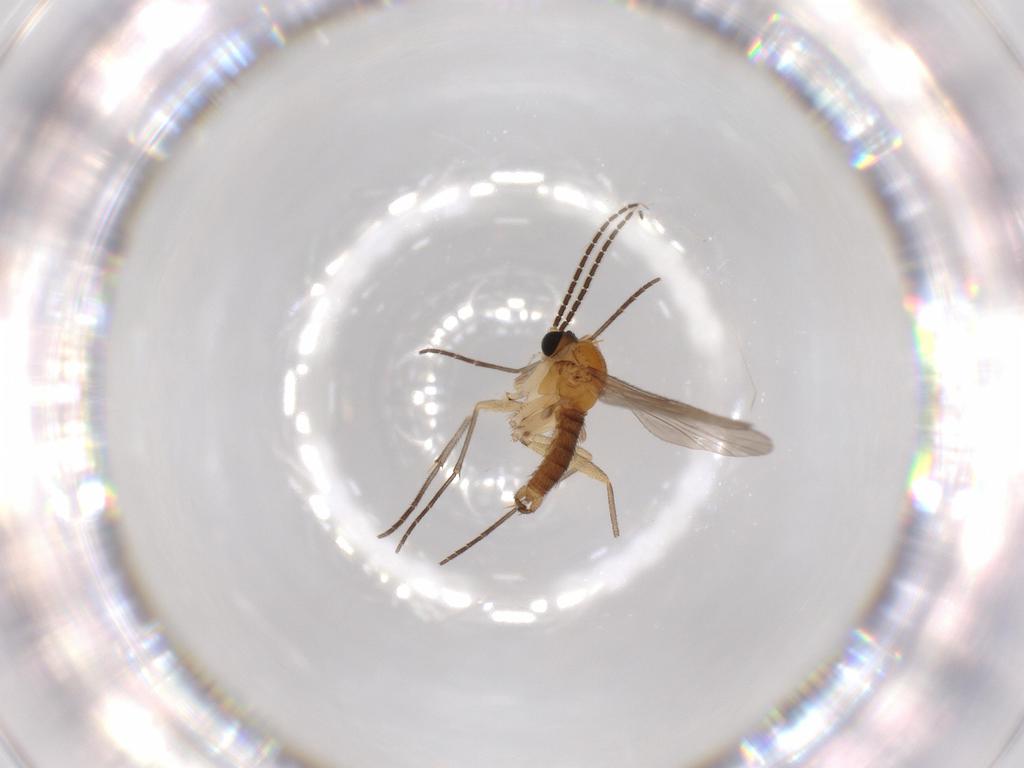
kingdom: Animalia
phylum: Arthropoda
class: Insecta
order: Diptera
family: Sciaridae
